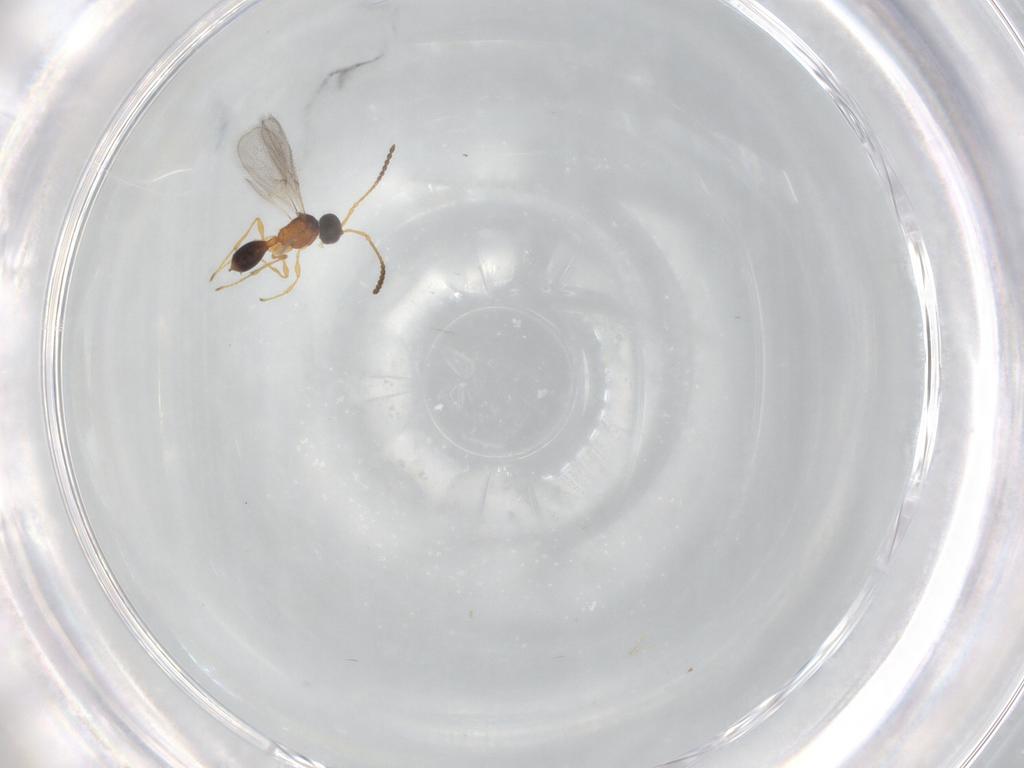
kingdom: Animalia
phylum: Arthropoda
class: Insecta
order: Hymenoptera
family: Diapriidae
